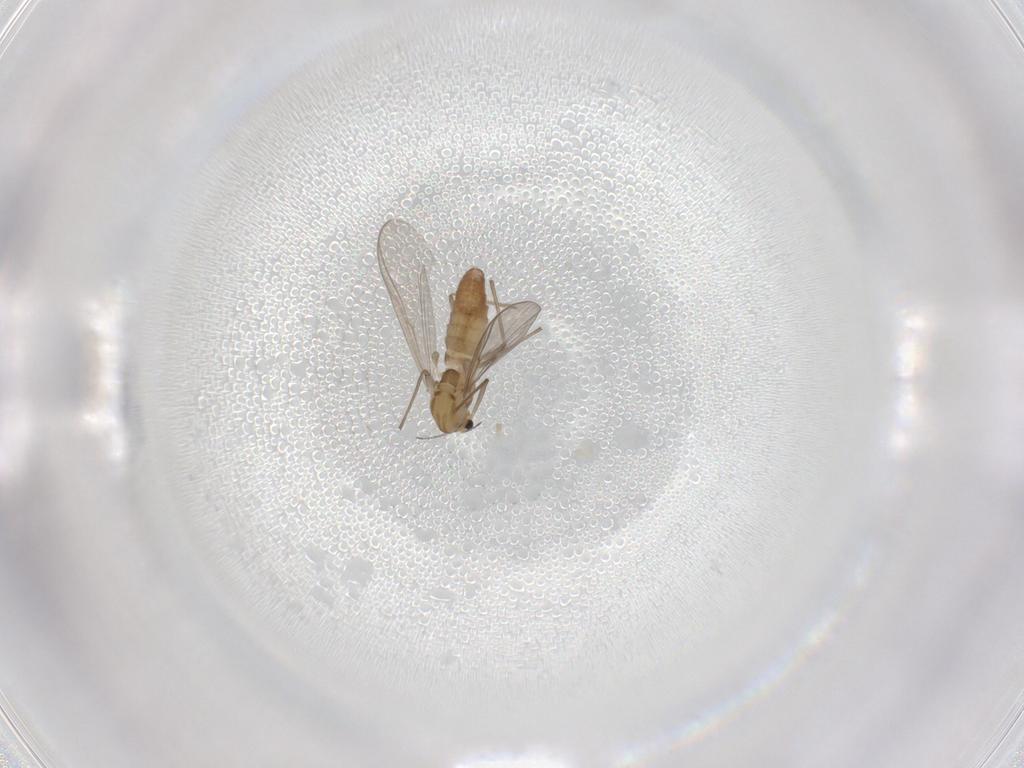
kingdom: Animalia
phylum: Arthropoda
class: Insecta
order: Diptera
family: Chironomidae
